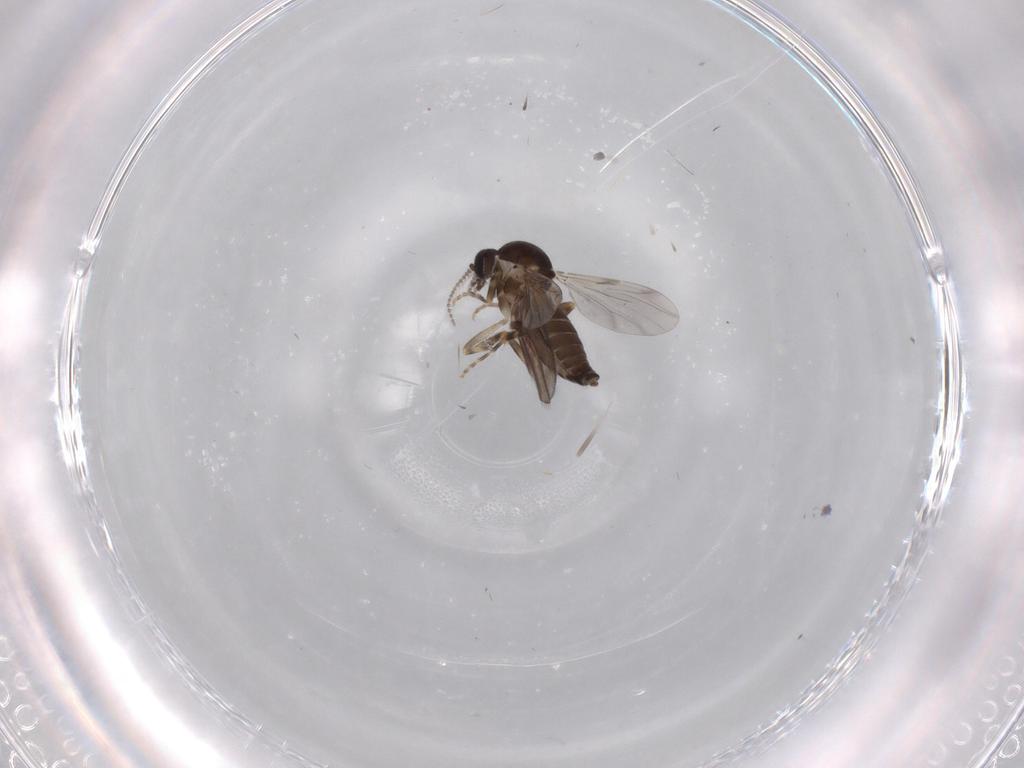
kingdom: Animalia
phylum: Arthropoda
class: Insecta
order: Diptera
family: Ceratopogonidae
